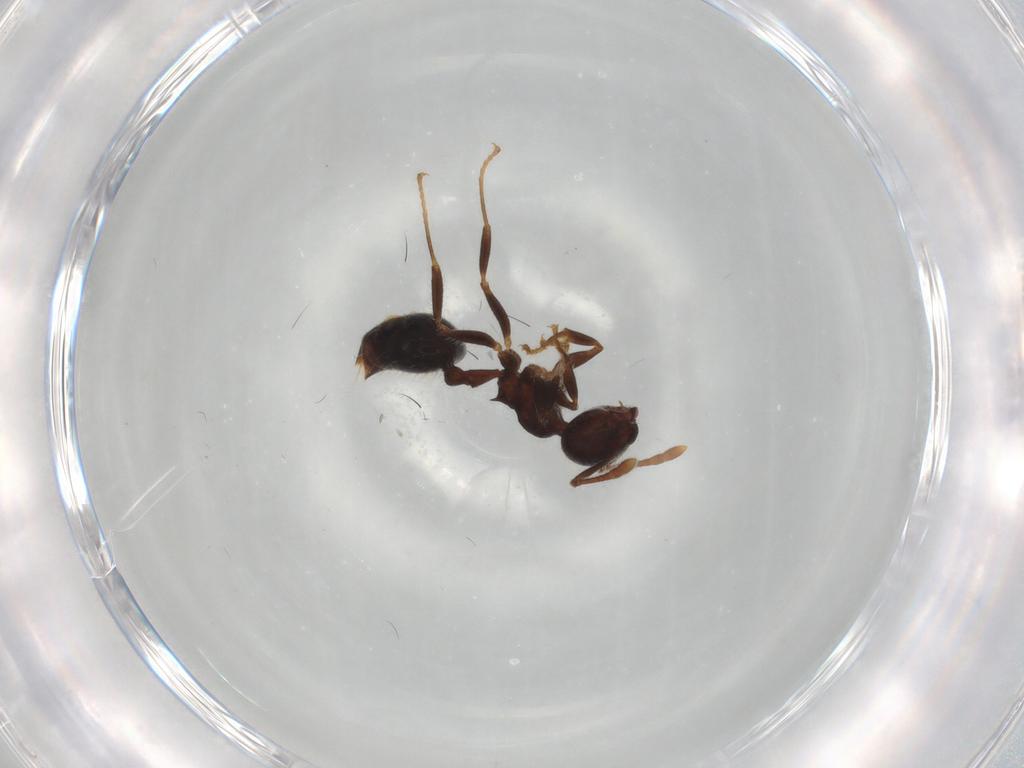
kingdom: Animalia
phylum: Arthropoda
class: Insecta
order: Hymenoptera
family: Formicidae
